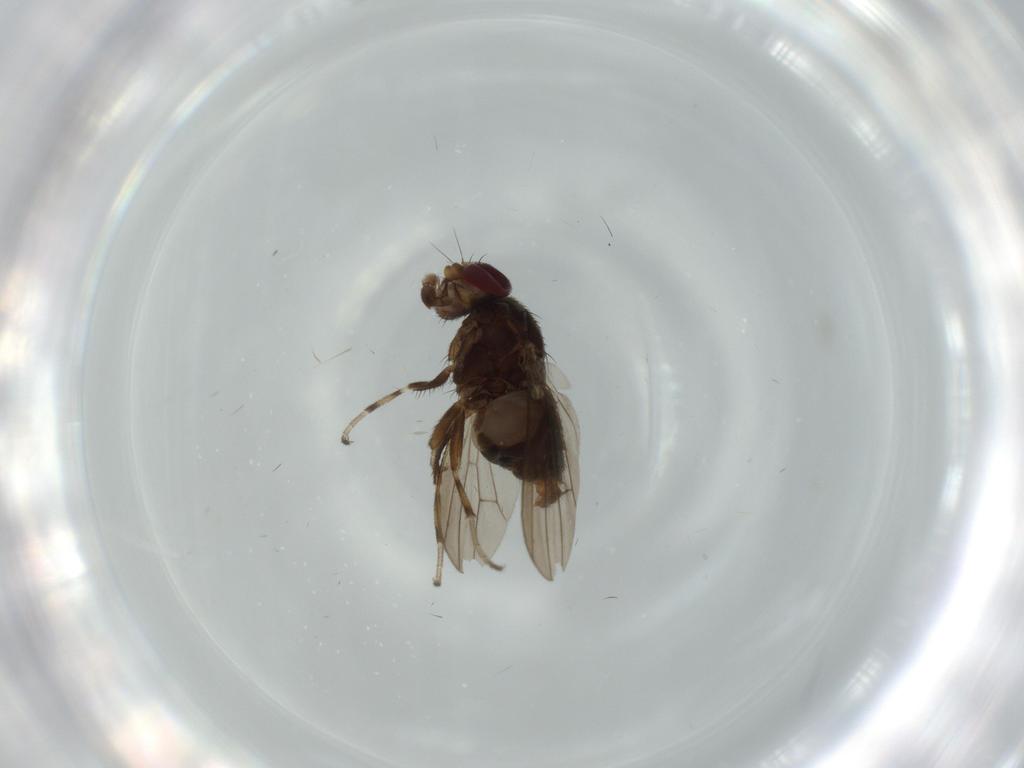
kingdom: Animalia
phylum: Arthropoda
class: Insecta
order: Diptera
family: Heleomyzidae
